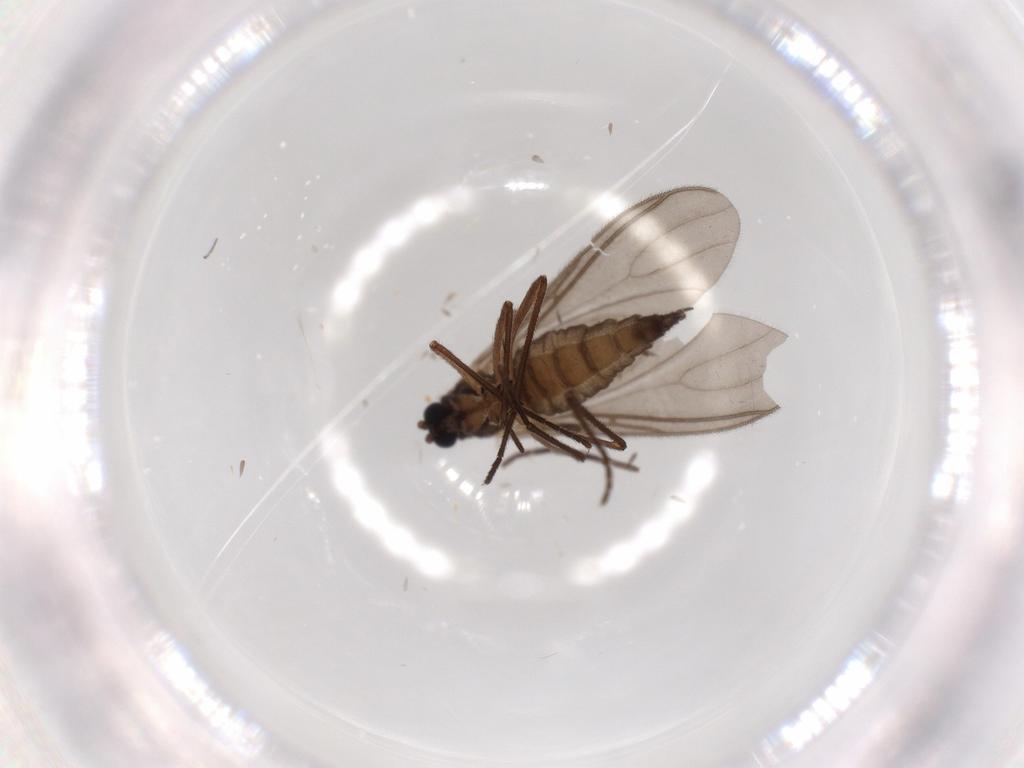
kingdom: Animalia
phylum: Arthropoda
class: Insecta
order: Diptera
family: Sciaridae
